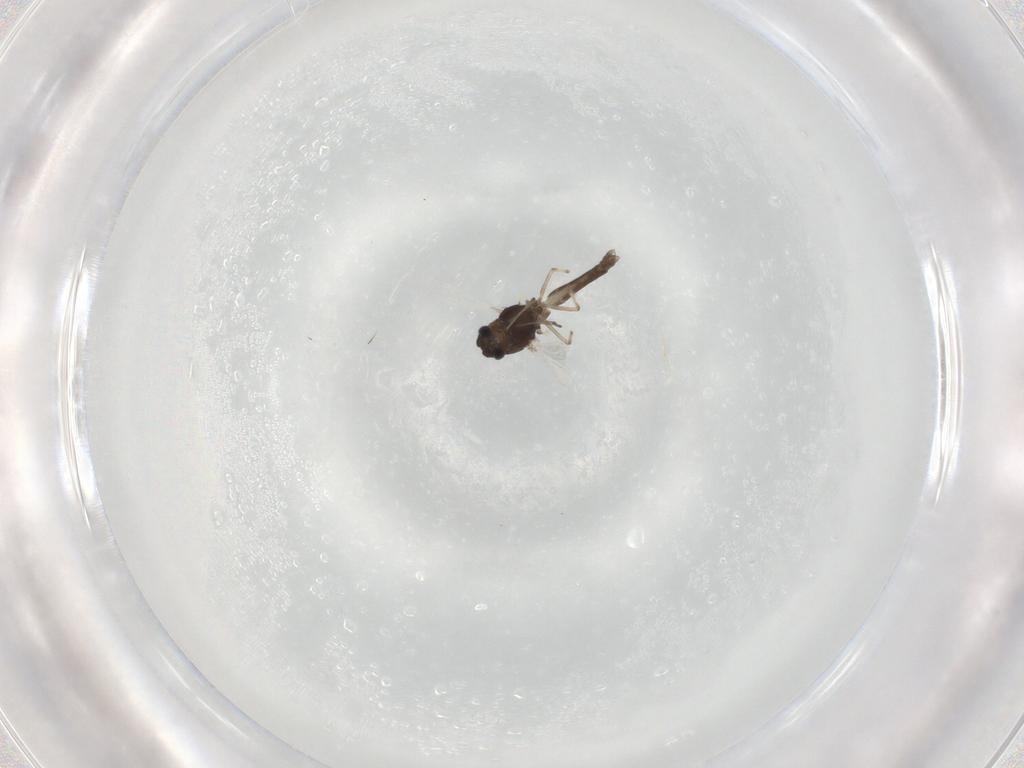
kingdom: Animalia
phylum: Arthropoda
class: Insecta
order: Diptera
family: Chironomidae
